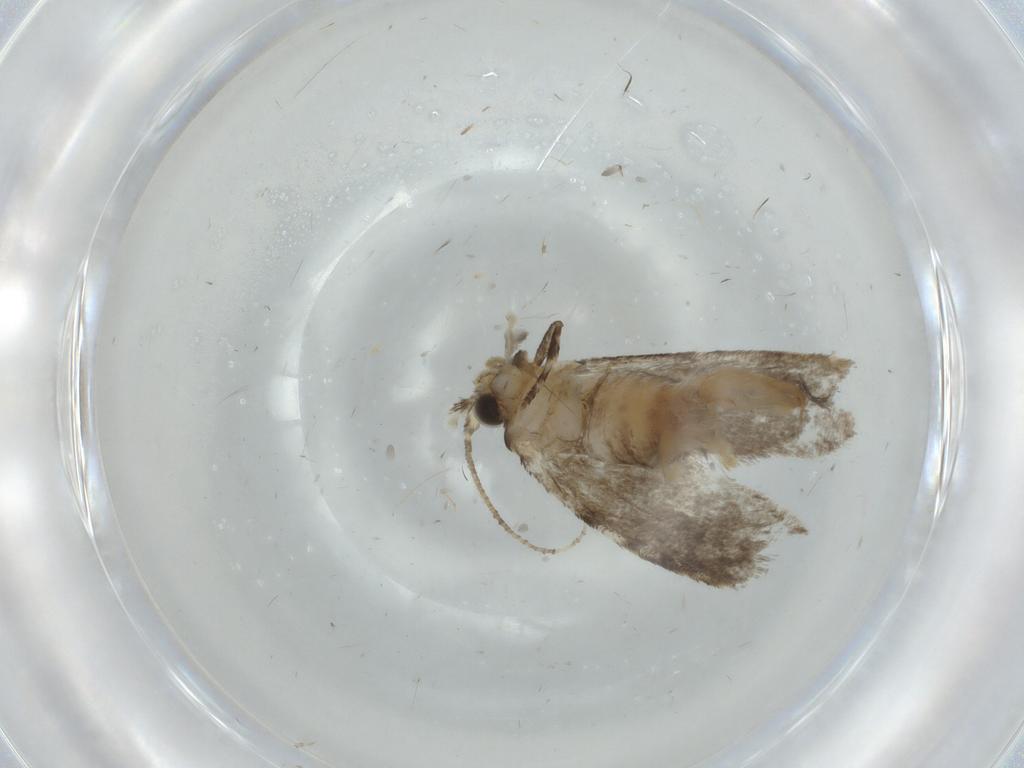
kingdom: Animalia
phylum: Arthropoda
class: Insecta
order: Lepidoptera
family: Tineidae
